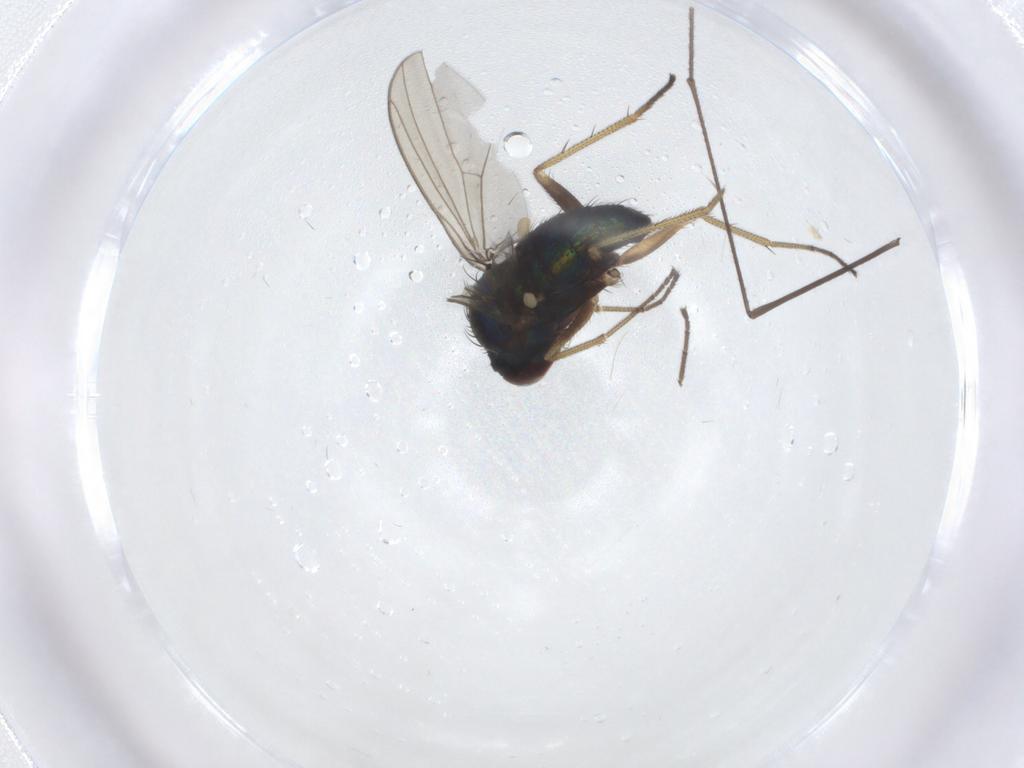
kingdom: Animalia
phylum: Arthropoda
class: Insecta
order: Diptera
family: Dolichopodidae
